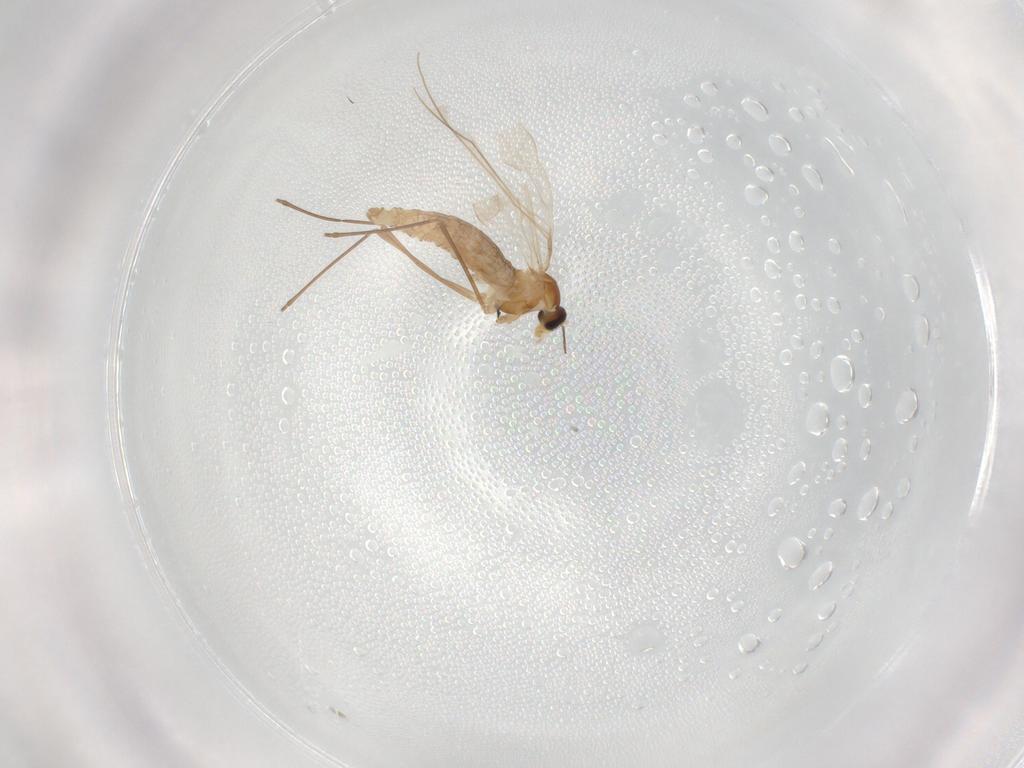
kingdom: Animalia
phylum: Arthropoda
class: Insecta
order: Diptera
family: Cecidomyiidae
